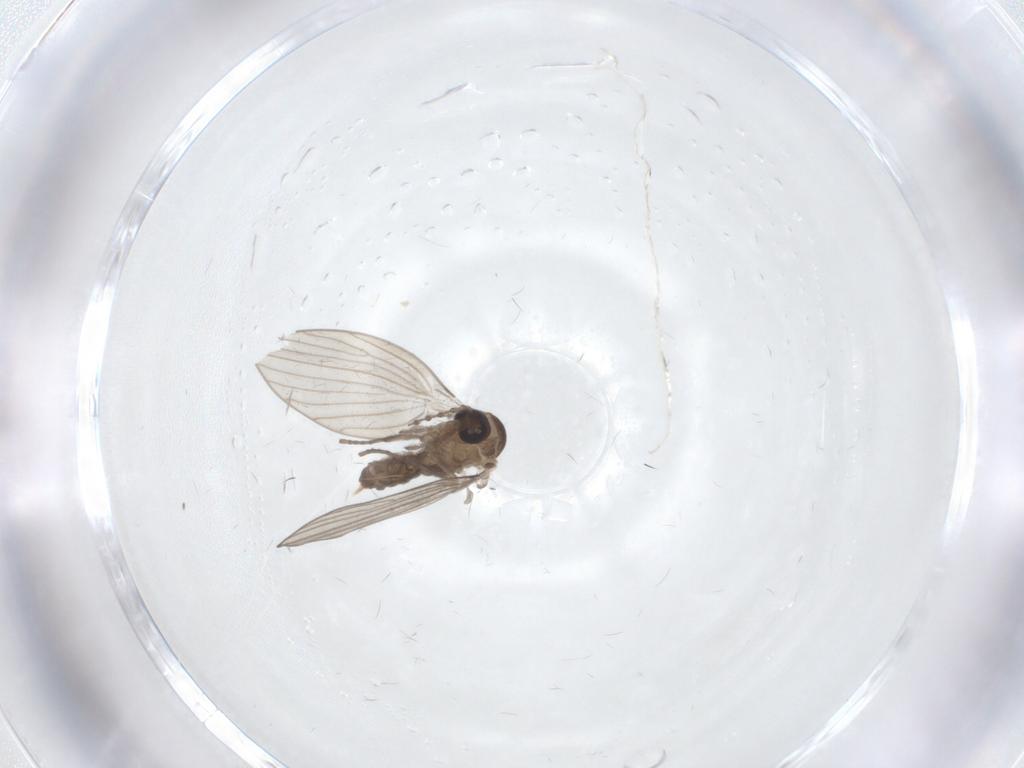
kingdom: Animalia
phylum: Arthropoda
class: Insecta
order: Diptera
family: Psychodidae
